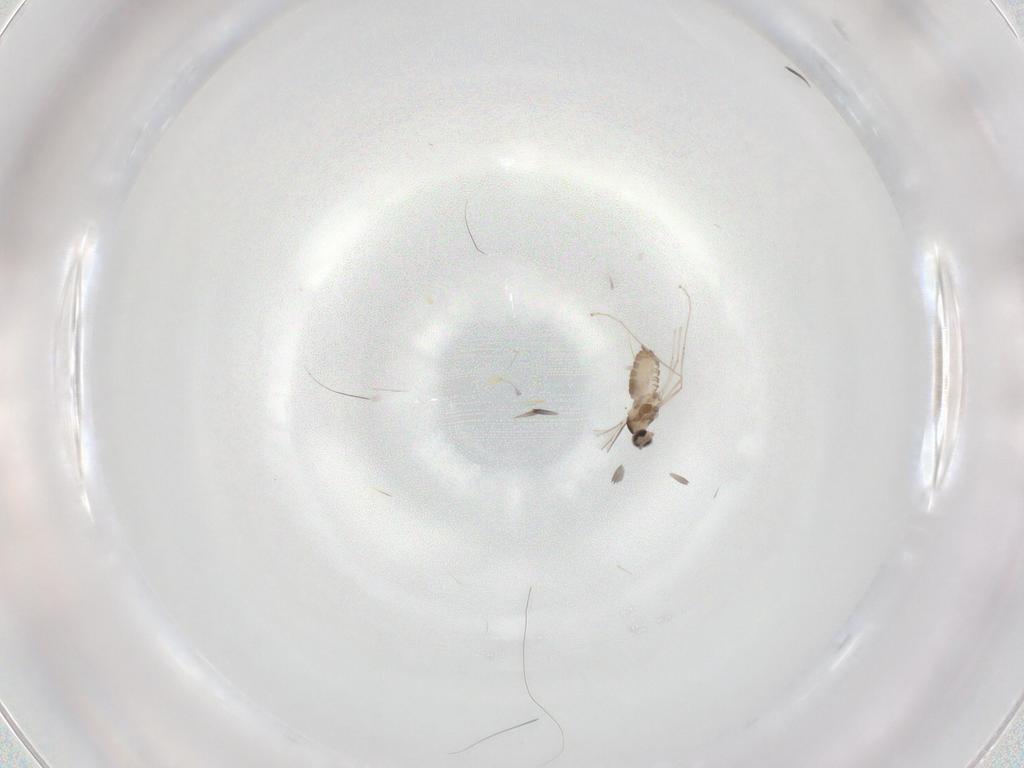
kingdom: Animalia
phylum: Arthropoda
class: Insecta
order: Diptera
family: Cecidomyiidae
